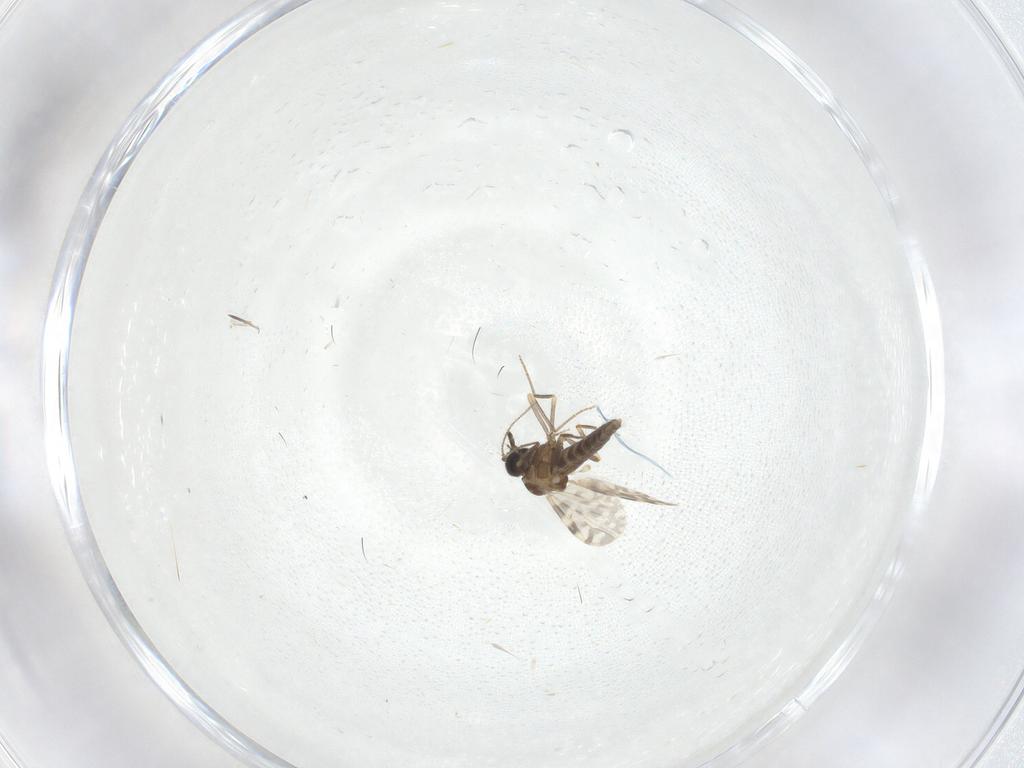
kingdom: Animalia
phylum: Arthropoda
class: Insecta
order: Diptera
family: Ceratopogonidae
